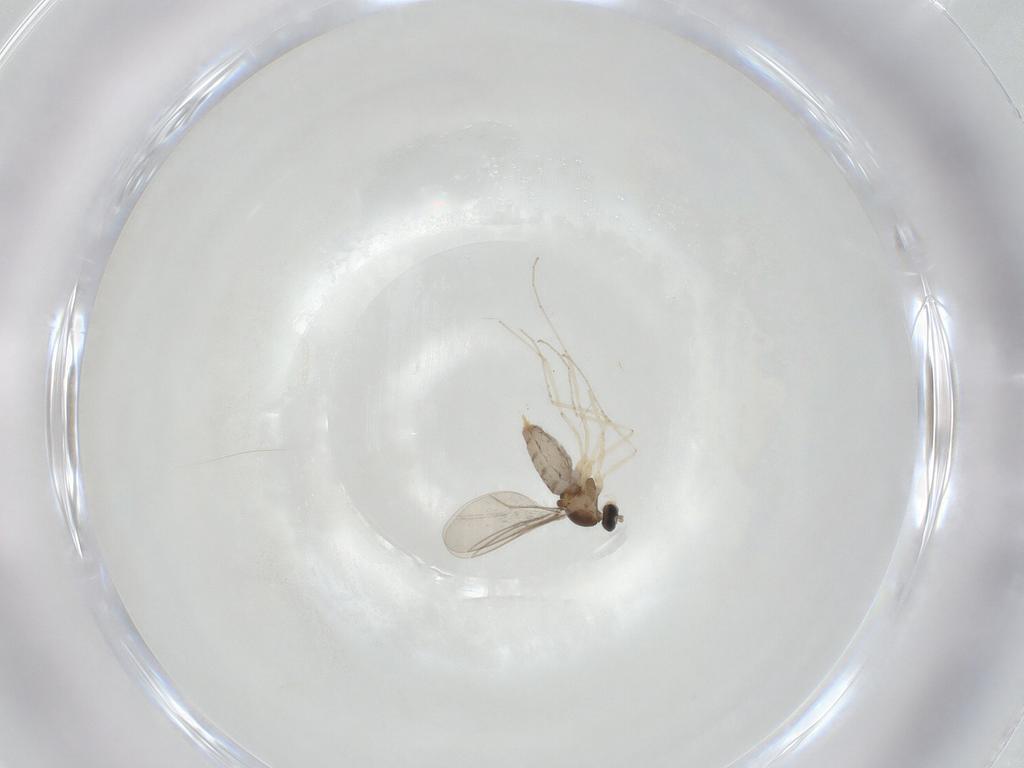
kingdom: Animalia
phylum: Arthropoda
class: Insecta
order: Diptera
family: Cecidomyiidae
